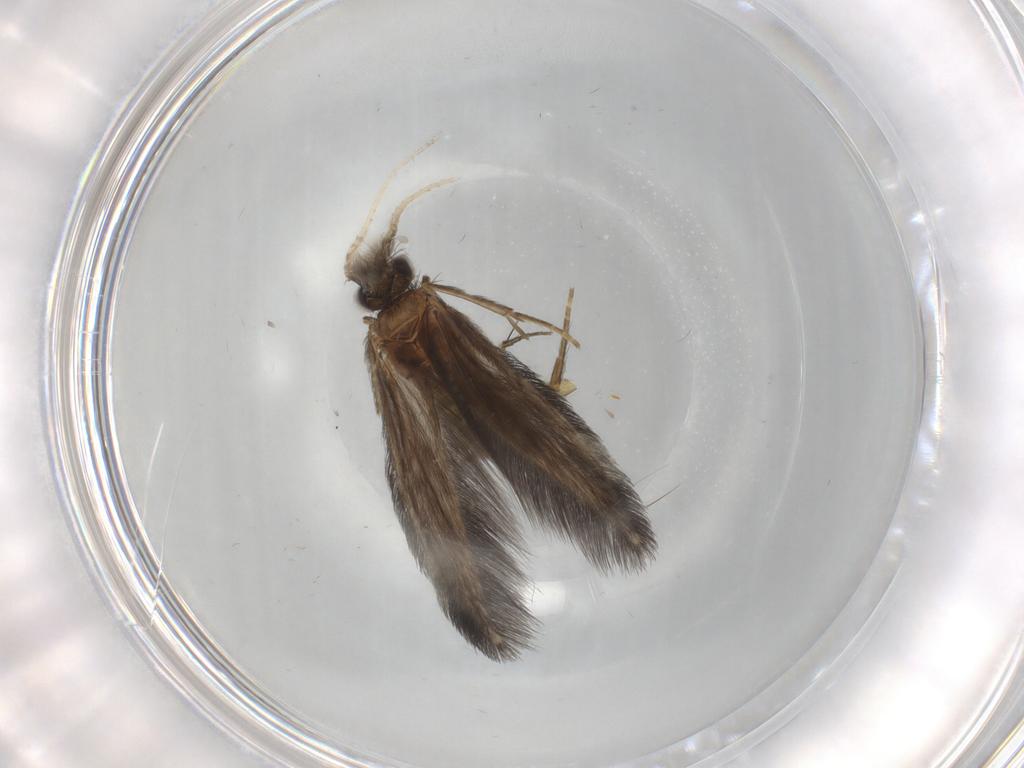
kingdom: Animalia
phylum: Arthropoda
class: Insecta
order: Trichoptera
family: Hydroptilidae
